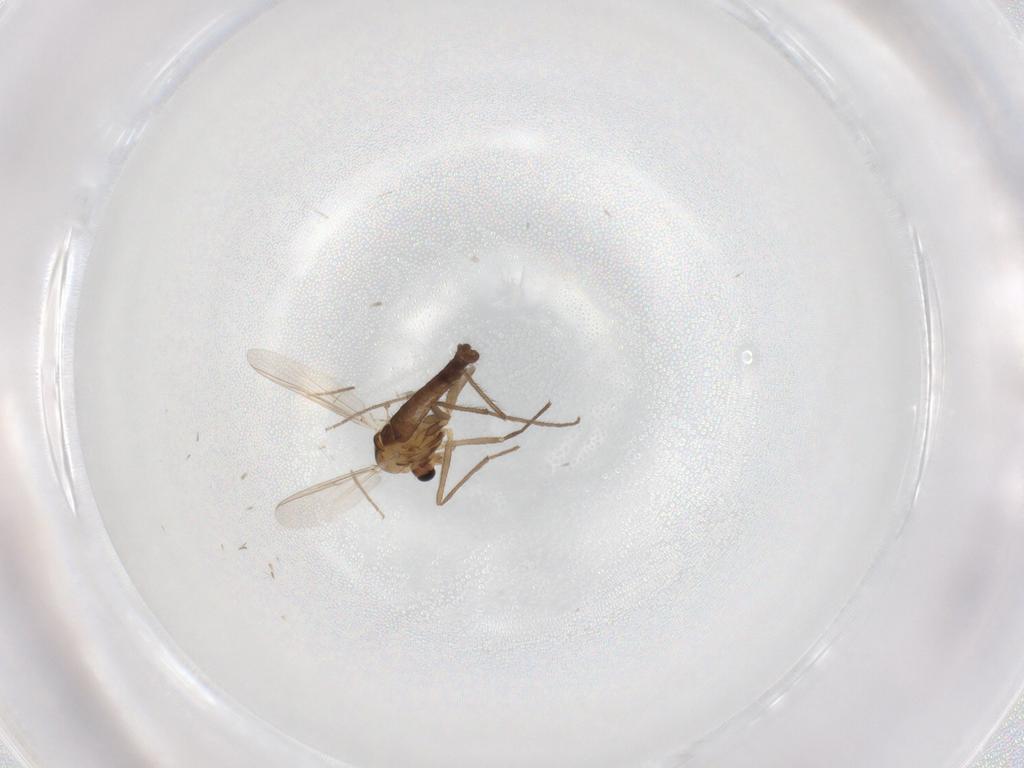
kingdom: Animalia
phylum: Arthropoda
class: Insecta
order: Diptera
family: Chironomidae
